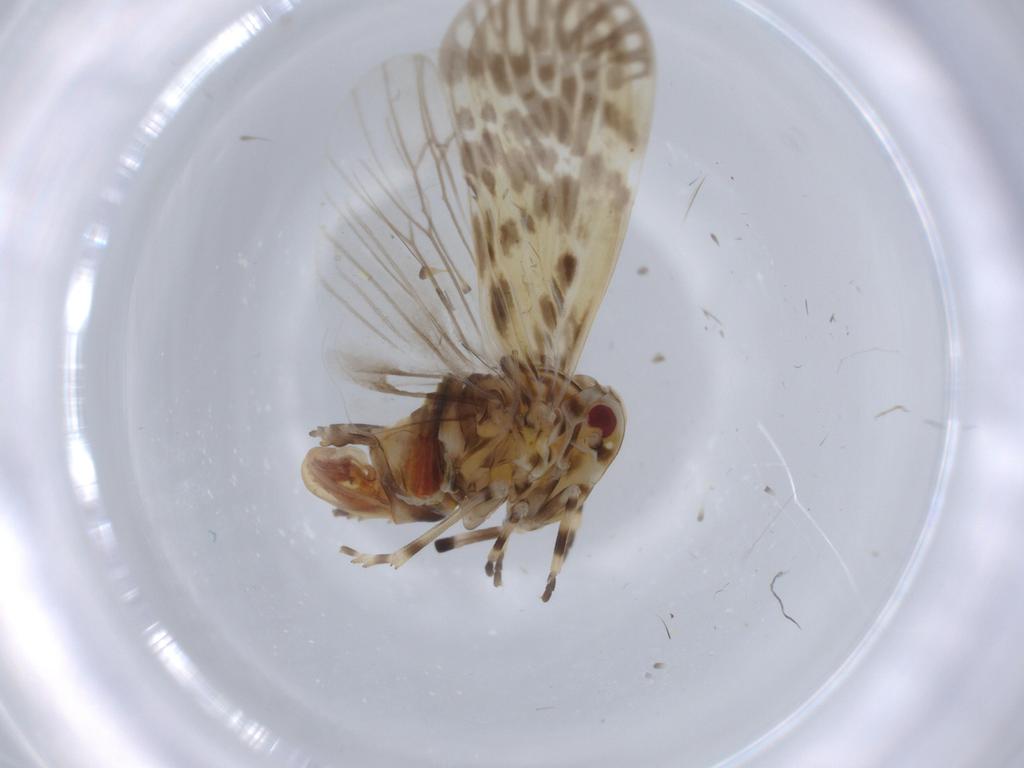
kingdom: Animalia
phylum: Arthropoda
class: Insecta
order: Hemiptera
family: Derbidae
